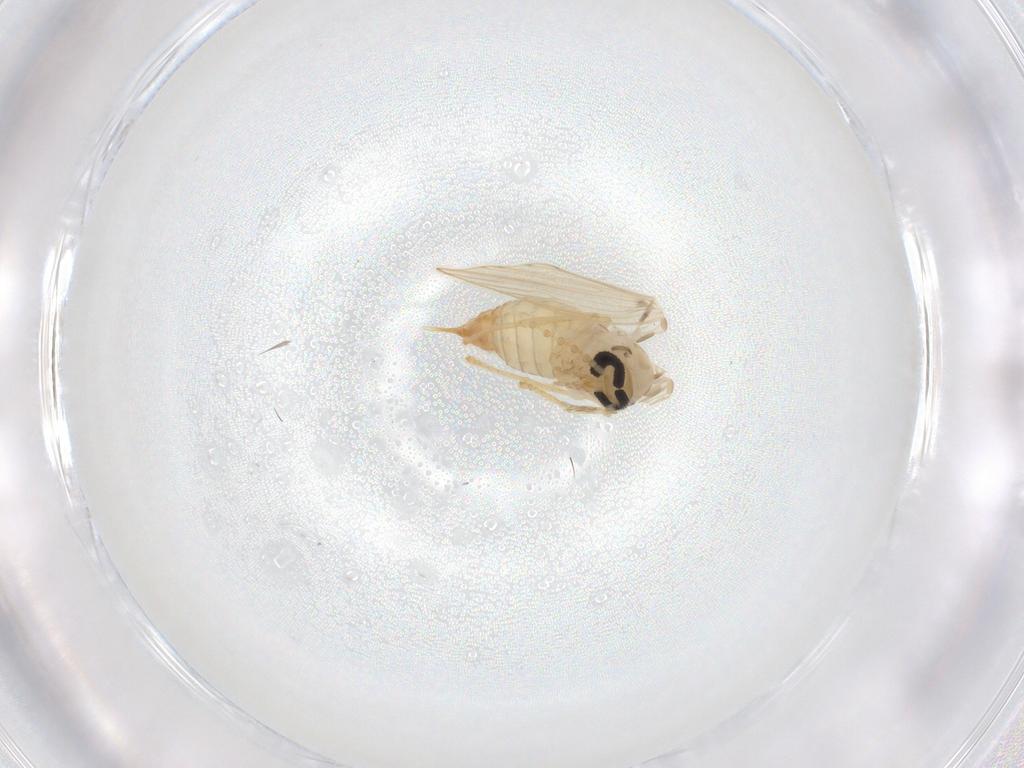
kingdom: Animalia
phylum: Arthropoda
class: Insecta
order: Diptera
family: Psychodidae
